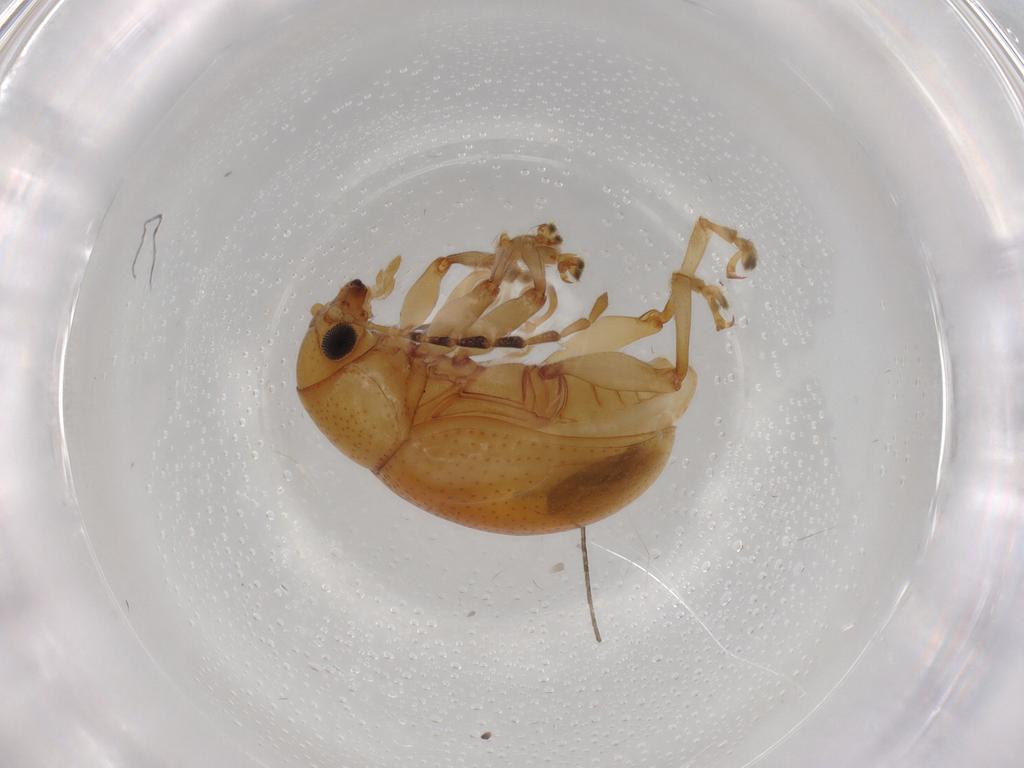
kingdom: Animalia
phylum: Arthropoda
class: Insecta
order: Coleoptera
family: Chrysomelidae
